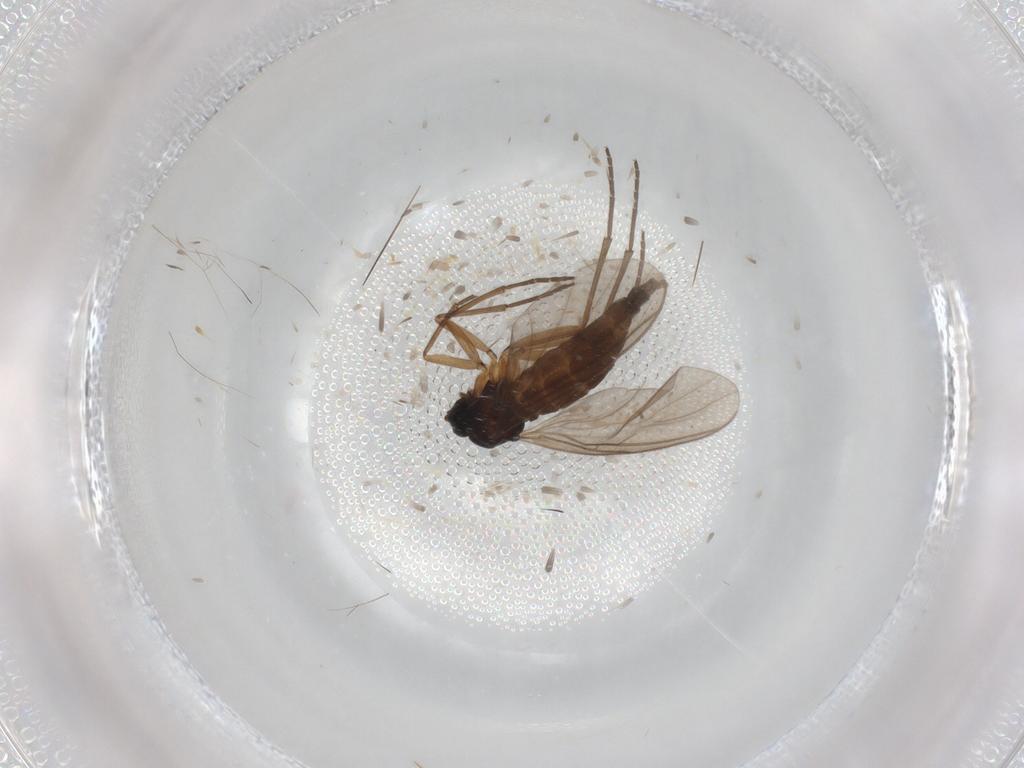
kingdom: Animalia
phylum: Arthropoda
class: Insecta
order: Diptera
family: Sciaridae
